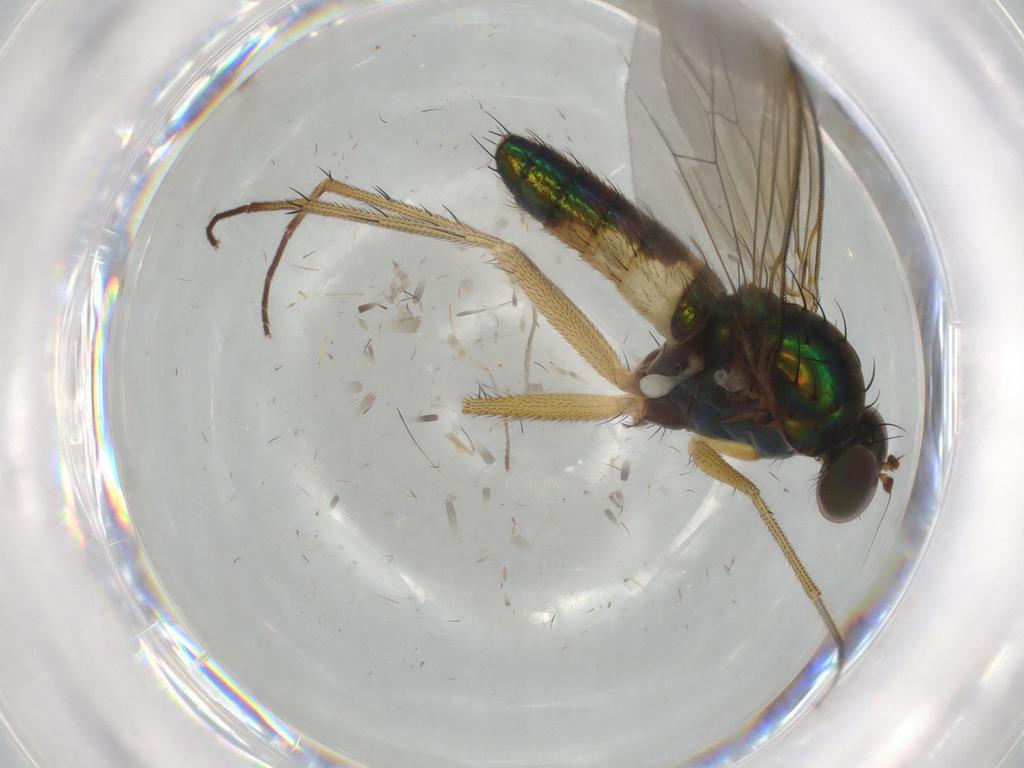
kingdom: Animalia
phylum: Arthropoda
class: Insecta
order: Diptera
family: Dolichopodidae
